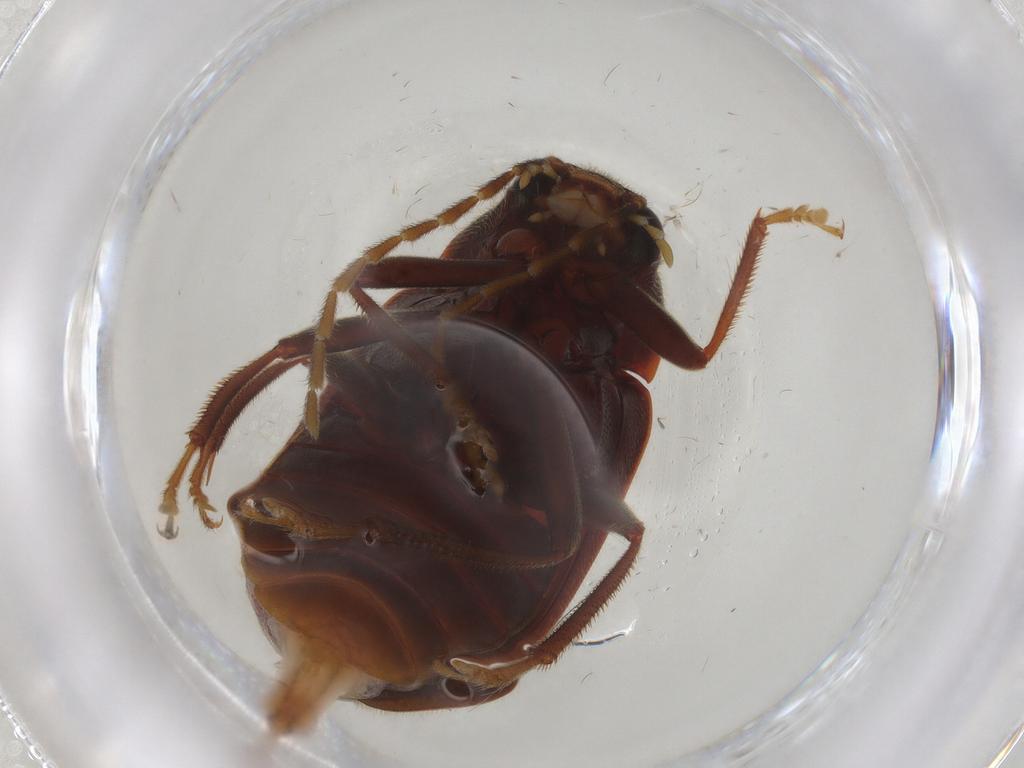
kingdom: Animalia
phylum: Arthropoda
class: Insecta
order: Coleoptera
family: Ptilodactylidae
